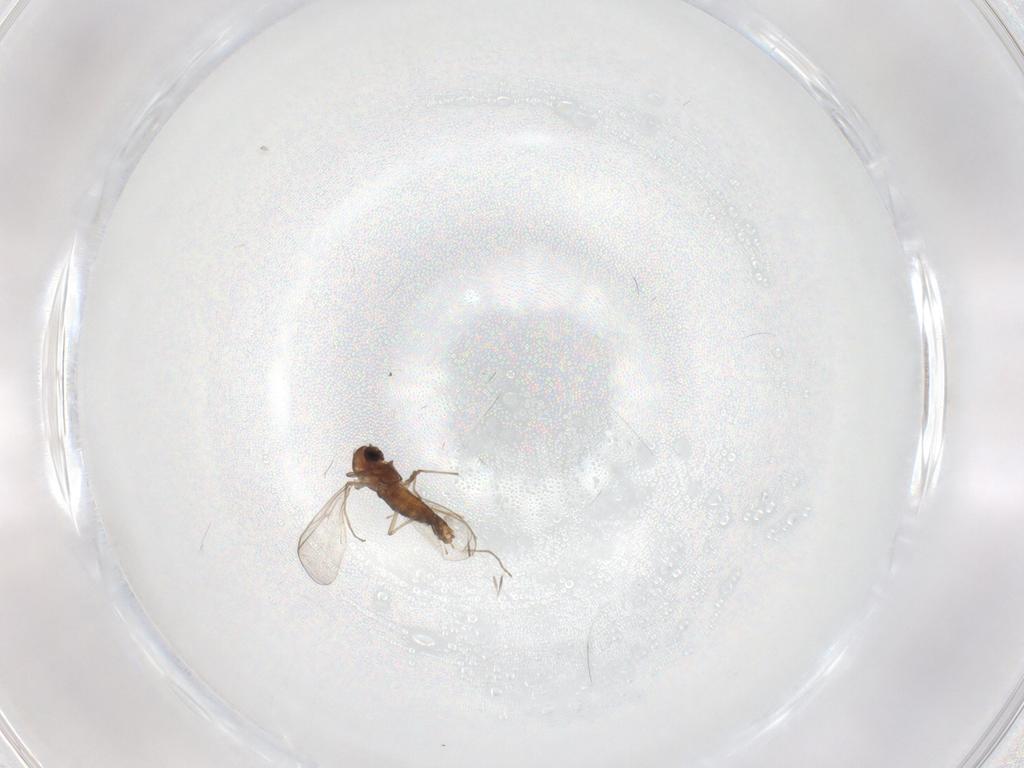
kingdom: Animalia
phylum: Arthropoda
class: Insecta
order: Diptera
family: Chironomidae
